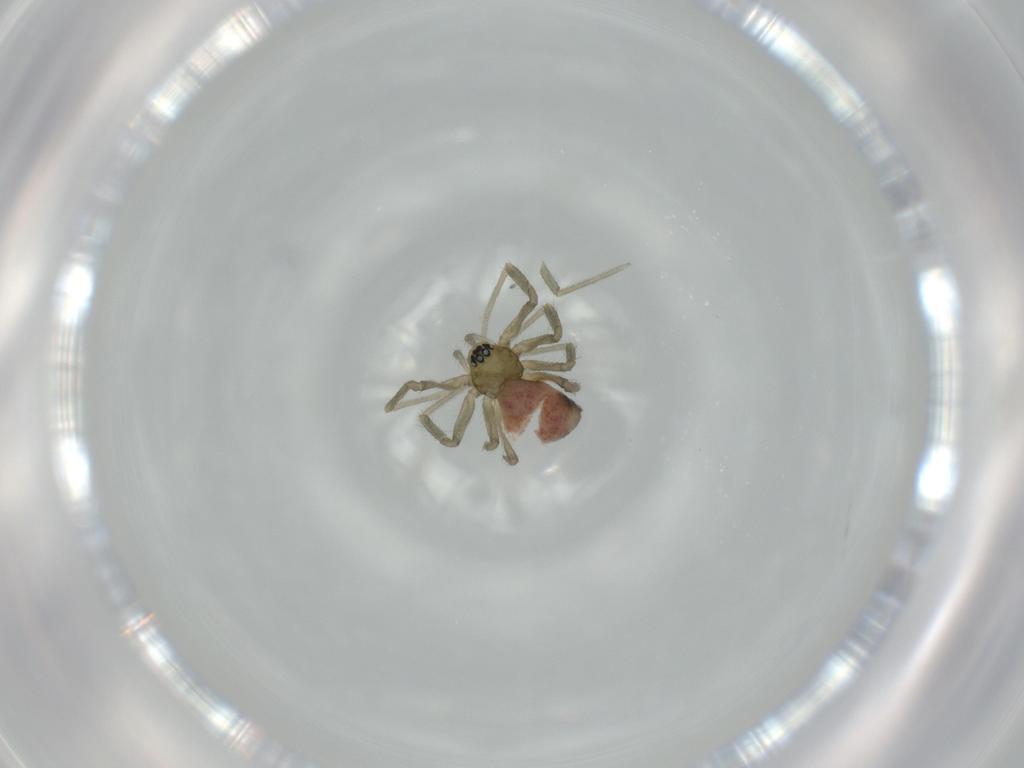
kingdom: Animalia
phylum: Arthropoda
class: Arachnida
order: Araneae
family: Linyphiidae
